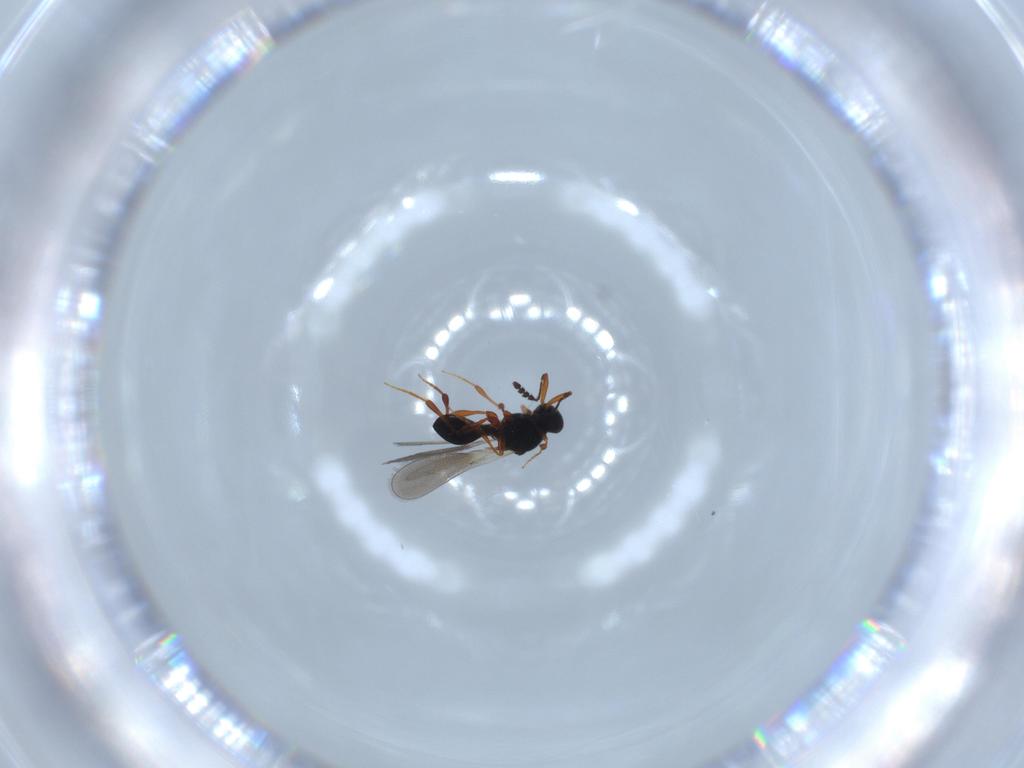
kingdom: Animalia
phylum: Arthropoda
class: Insecta
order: Hymenoptera
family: Platygastridae
